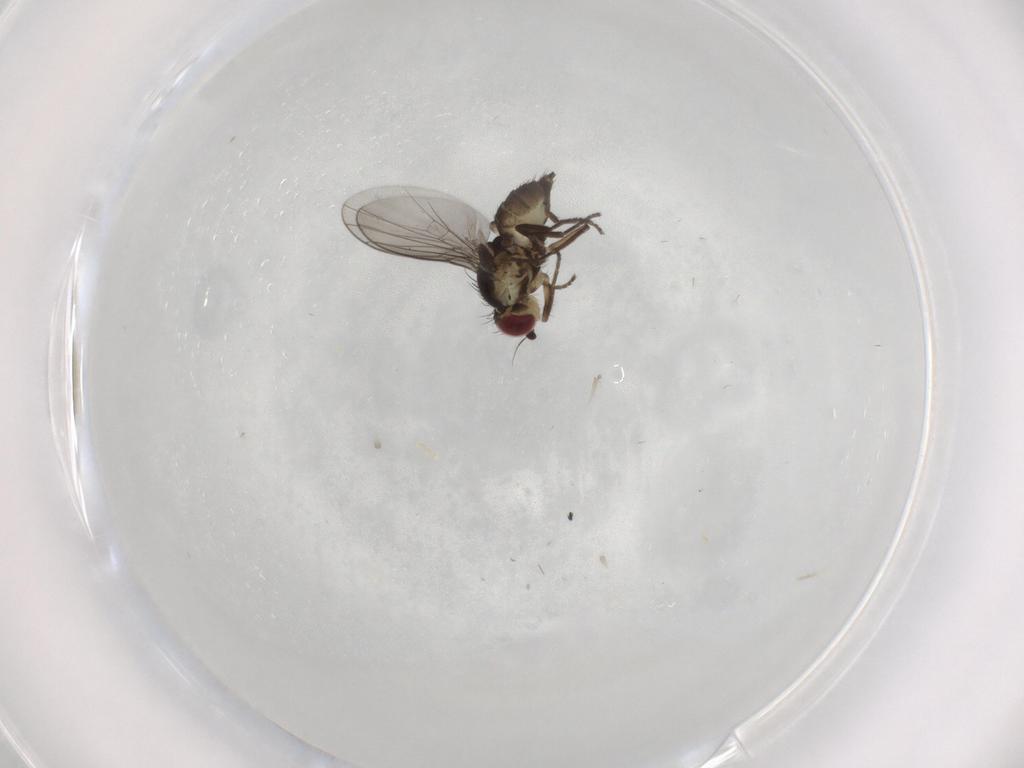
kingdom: Animalia
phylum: Arthropoda
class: Insecta
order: Diptera
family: Agromyzidae
